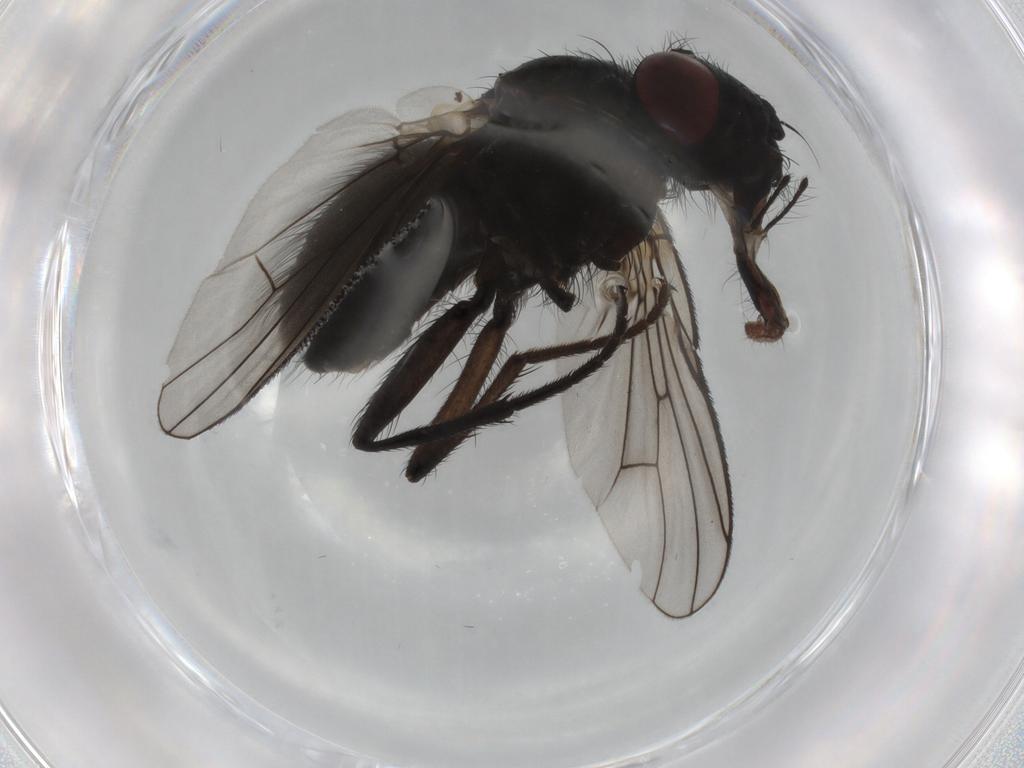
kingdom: Animalia
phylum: Arthropoda
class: Insecta
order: Diptera
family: Muscidae
